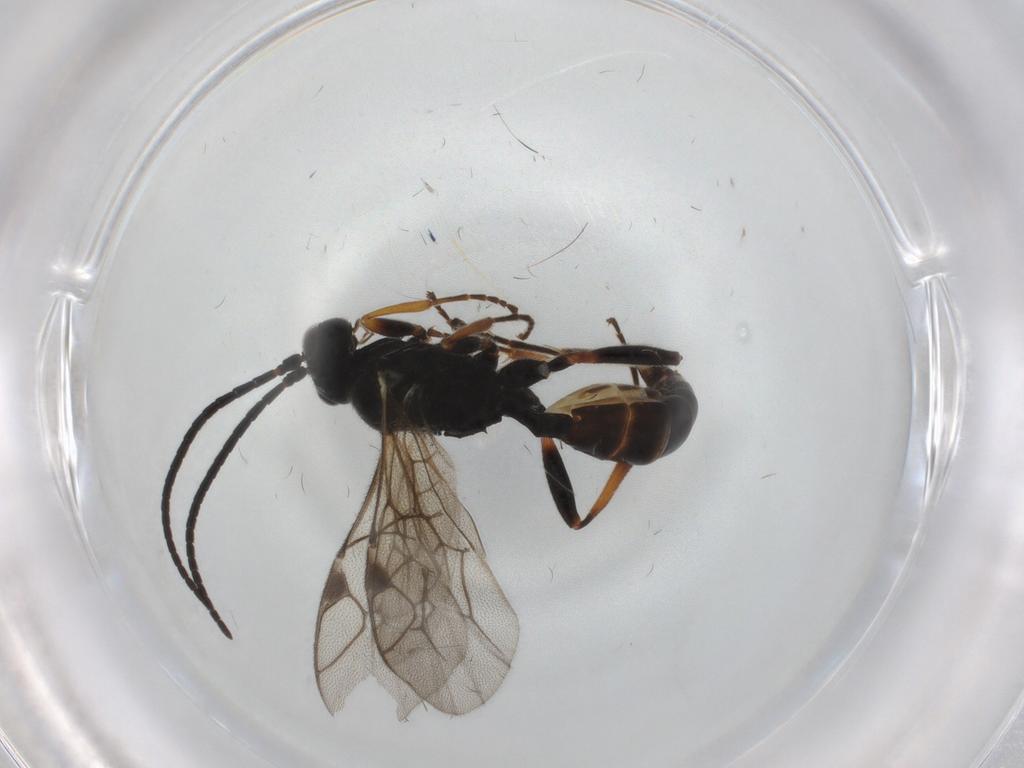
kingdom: Animalia
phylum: Arthropoda
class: Insecta
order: Hymenoptera
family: Ichneumonidae
